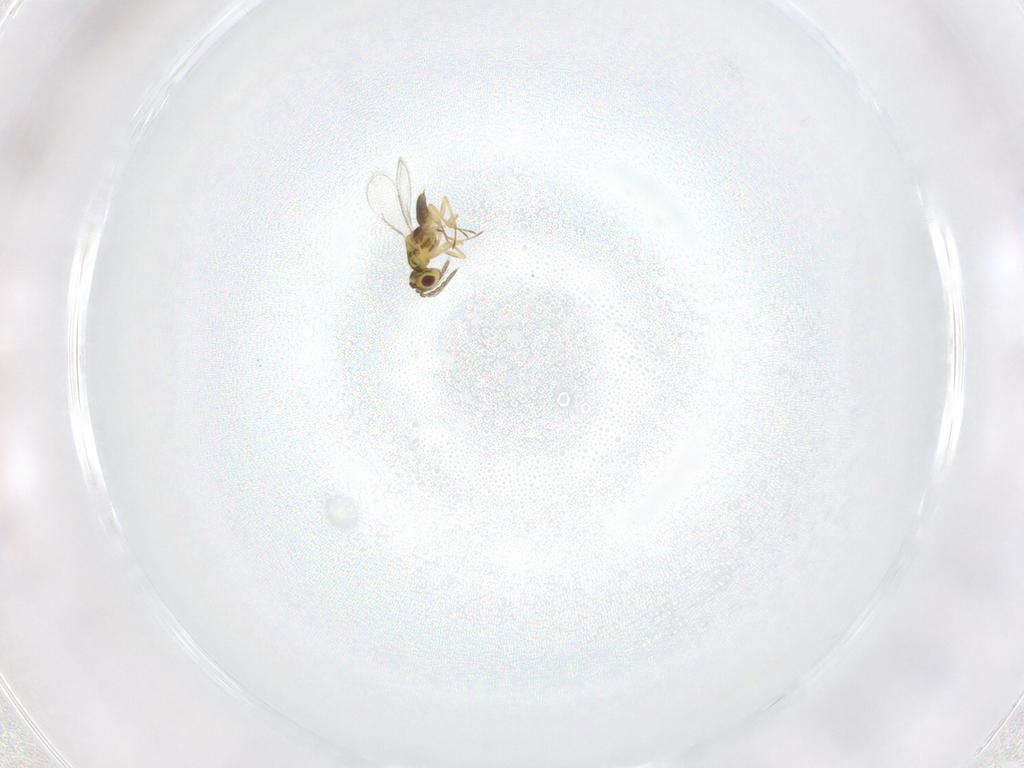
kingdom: Animalia
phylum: Arthropoda
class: Insecta
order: Hymenoptera
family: Eulophidae
